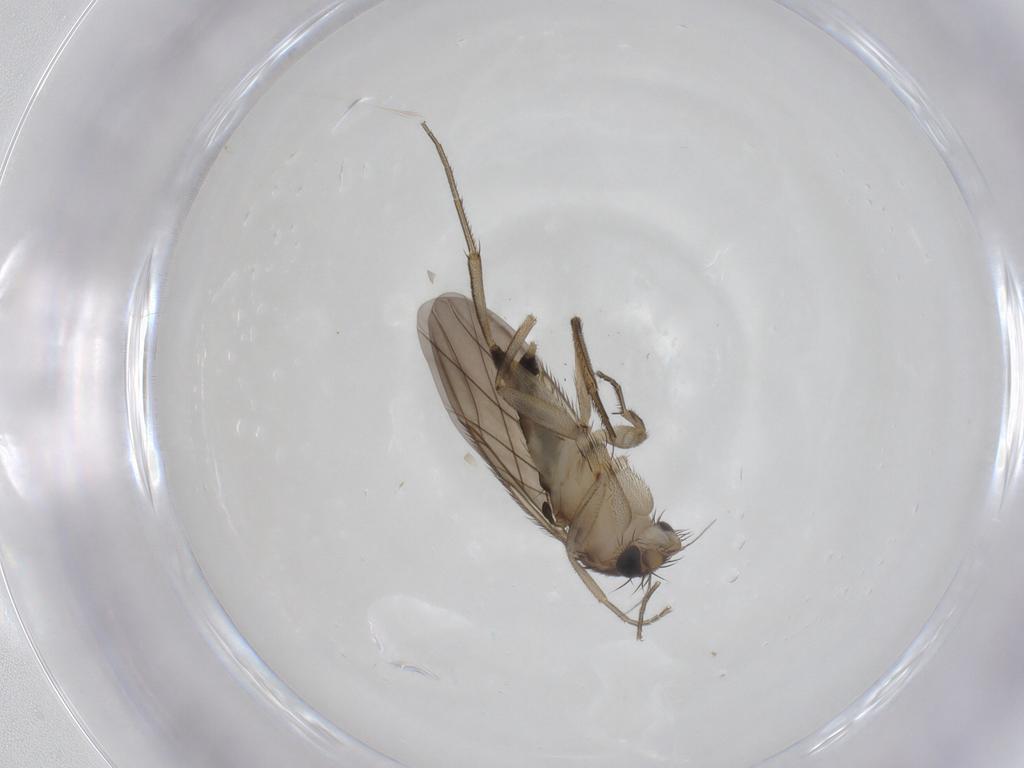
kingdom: Animalia
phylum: Arthropoda
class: Insecta
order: Diptera
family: Phoridae
